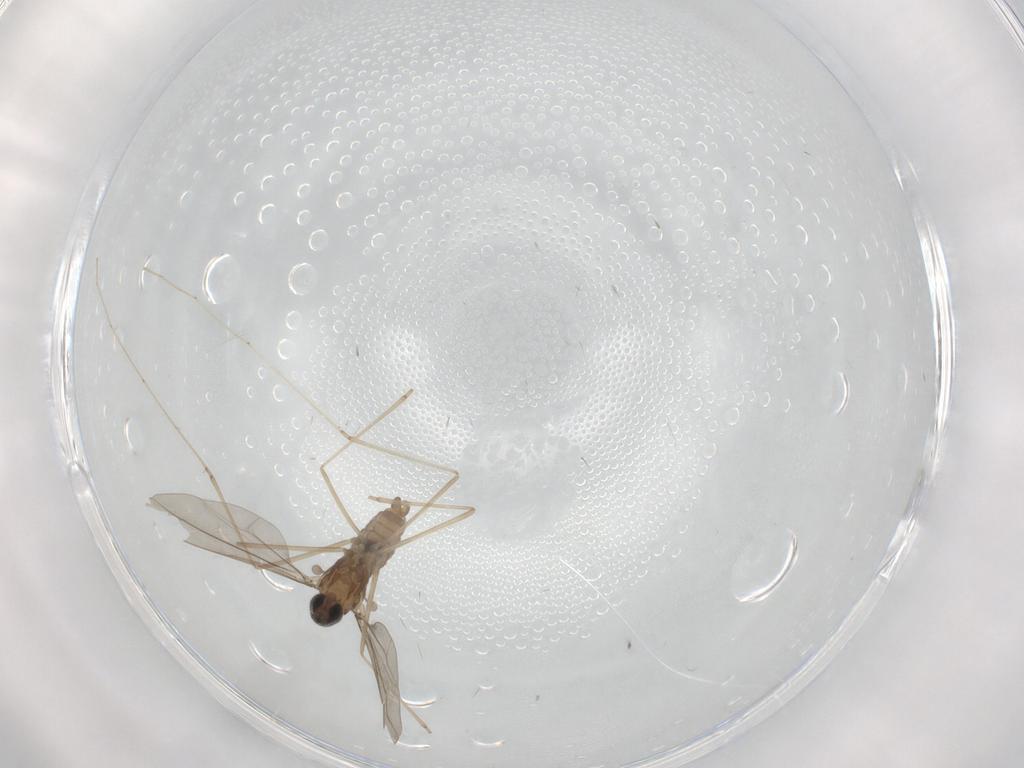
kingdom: Animalia
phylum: Arthropoda
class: Insecta
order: Diptera
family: Phoridae
